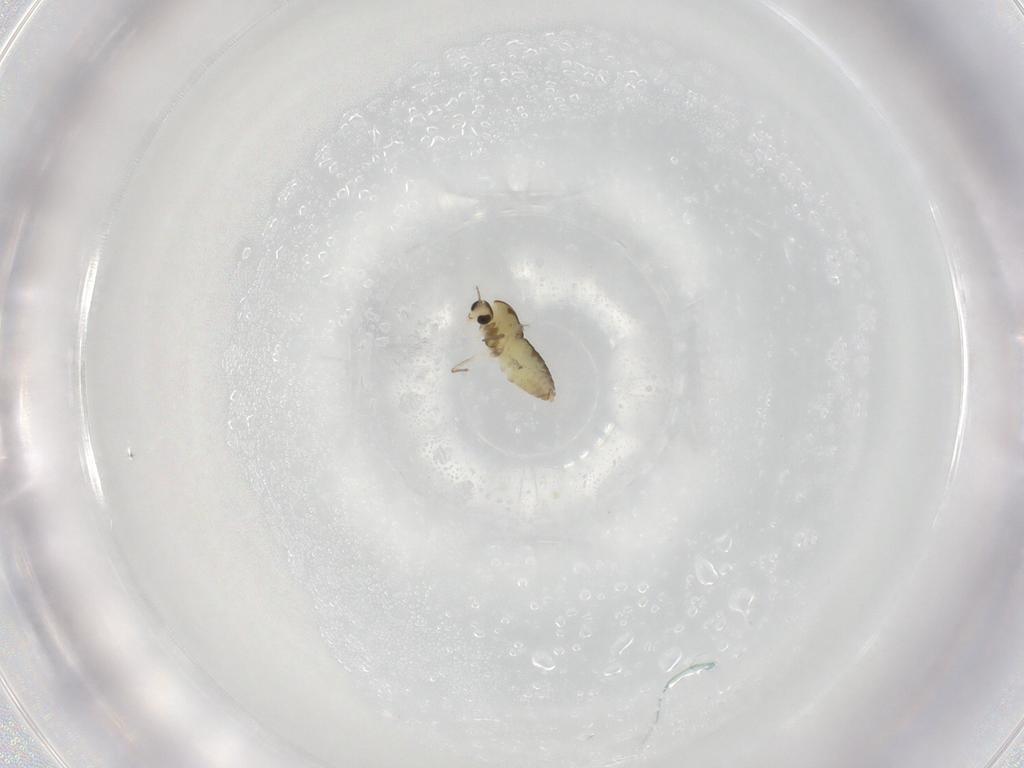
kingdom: Animalia
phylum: Arthropoda
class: Insecta
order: Diptera
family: Chironomidae
